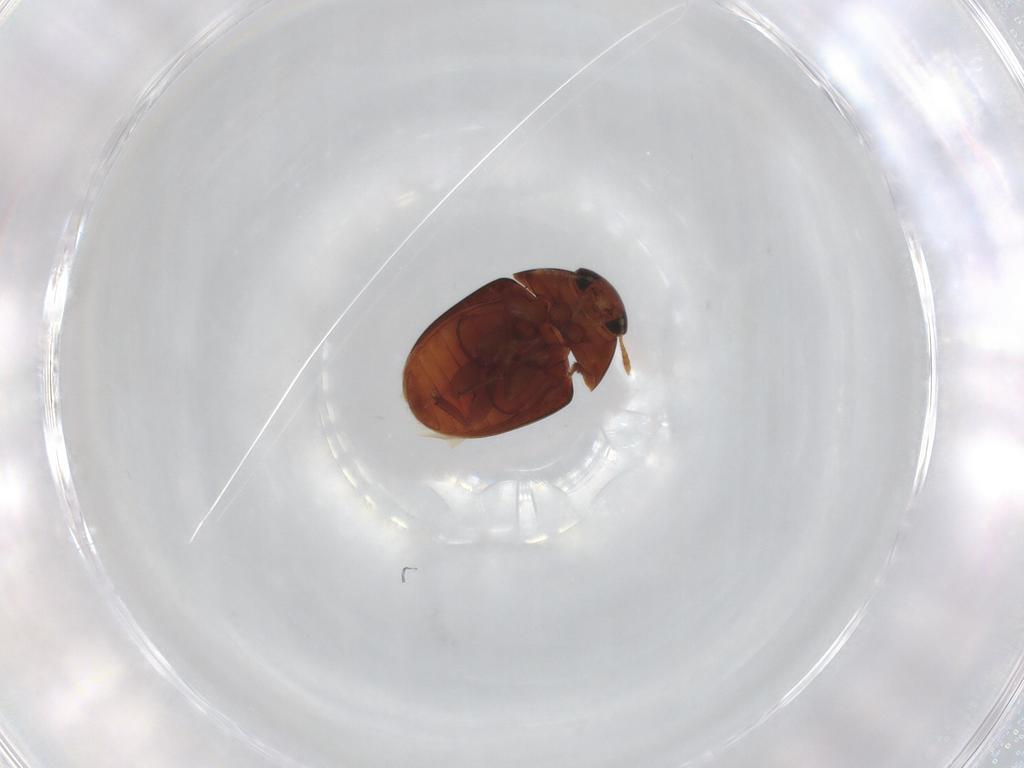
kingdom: Animalia
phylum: Arthropoda
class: Insecta
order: Coleoptera
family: Phalacridae
